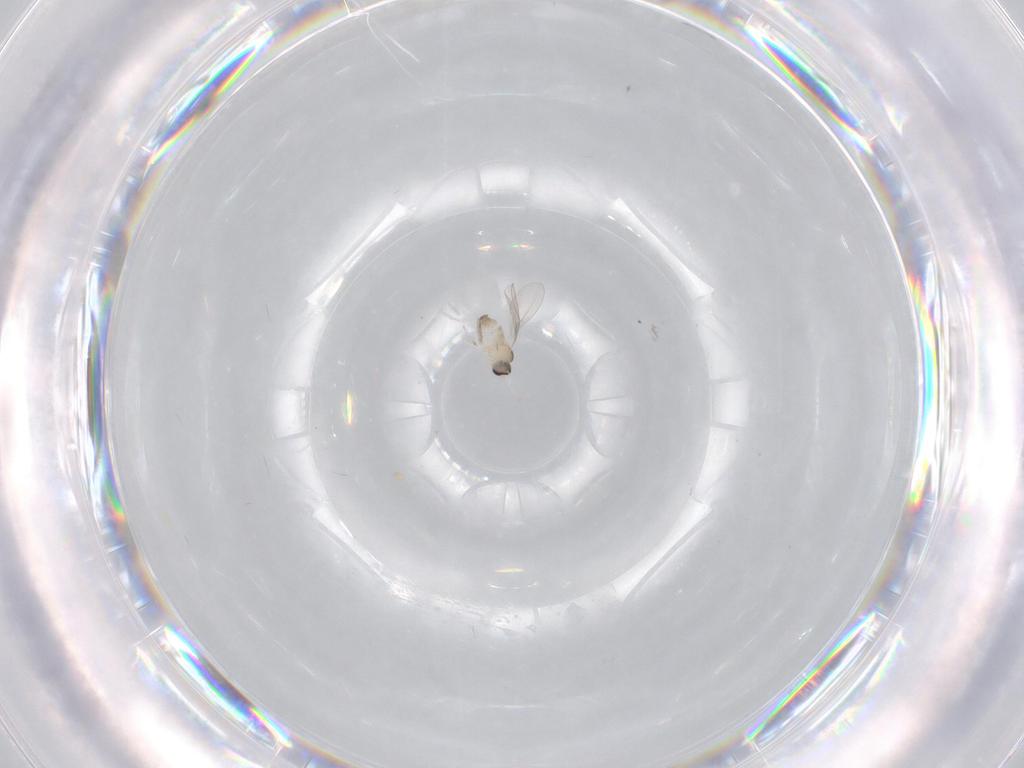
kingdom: Animalia
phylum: Arthropoda
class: Insecta
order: Diptera
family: Cecidomyiidae
